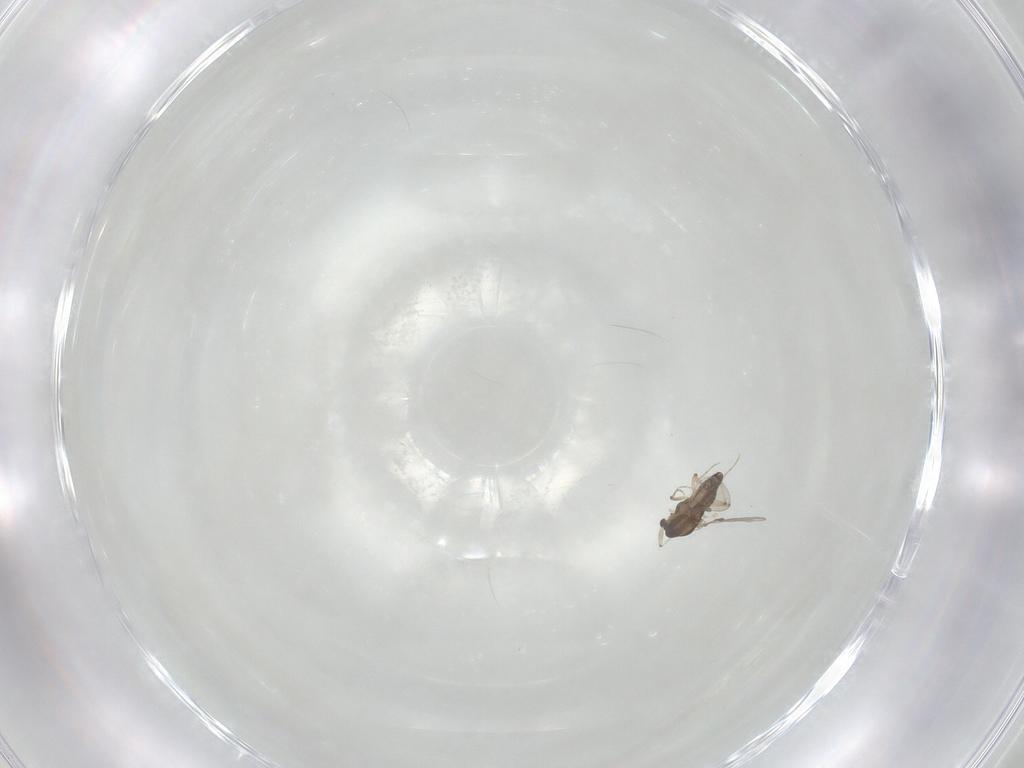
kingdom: Animalia
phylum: Arthropoda
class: Insecta
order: Diptera
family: Chironomidae
